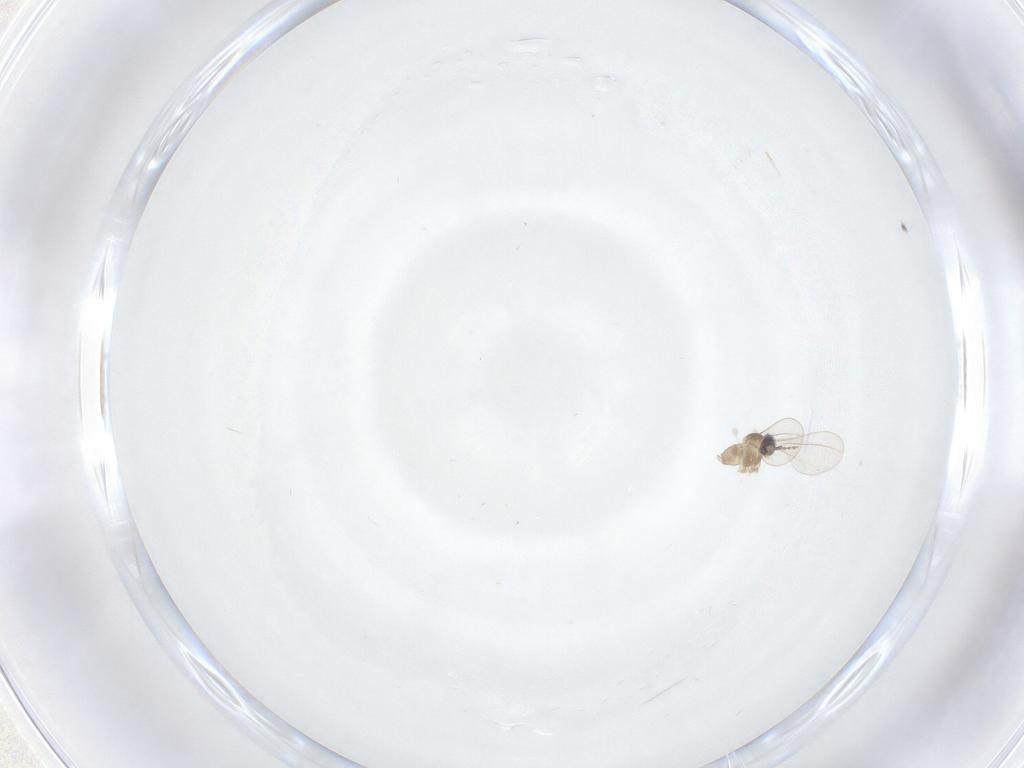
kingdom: Animalia
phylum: Arthropoda
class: Insecta
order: Diptera
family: Cecidomyiidae
